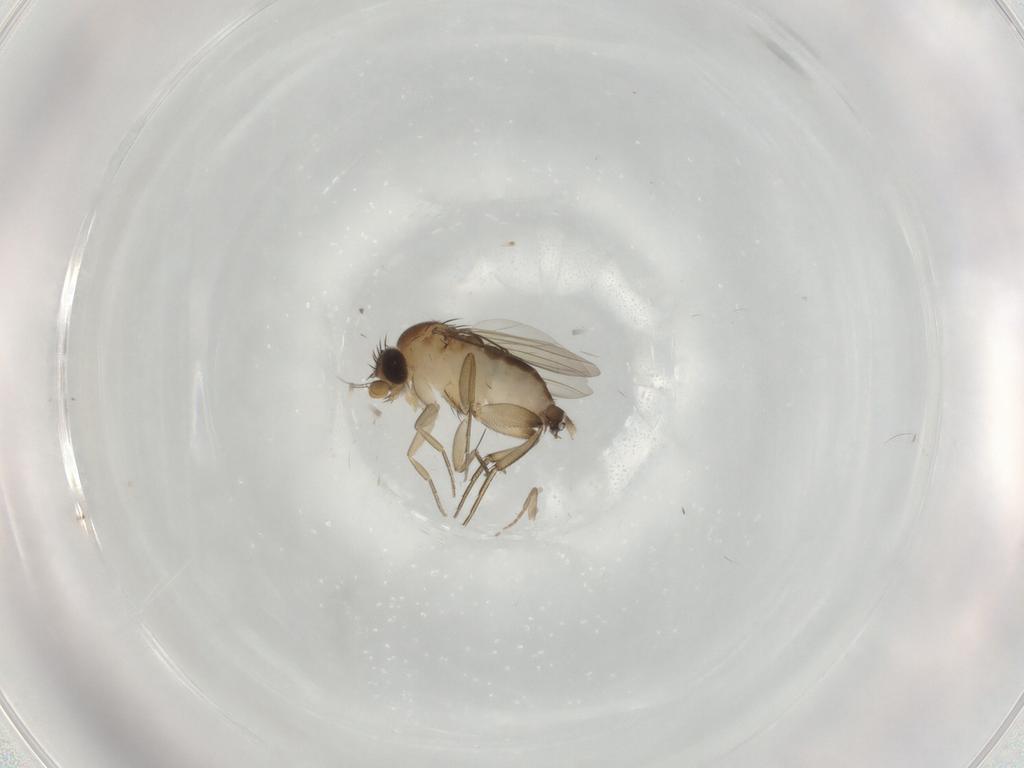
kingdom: Animalia
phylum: Arthropoda
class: Insecta
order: Diptera
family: Phoridae
